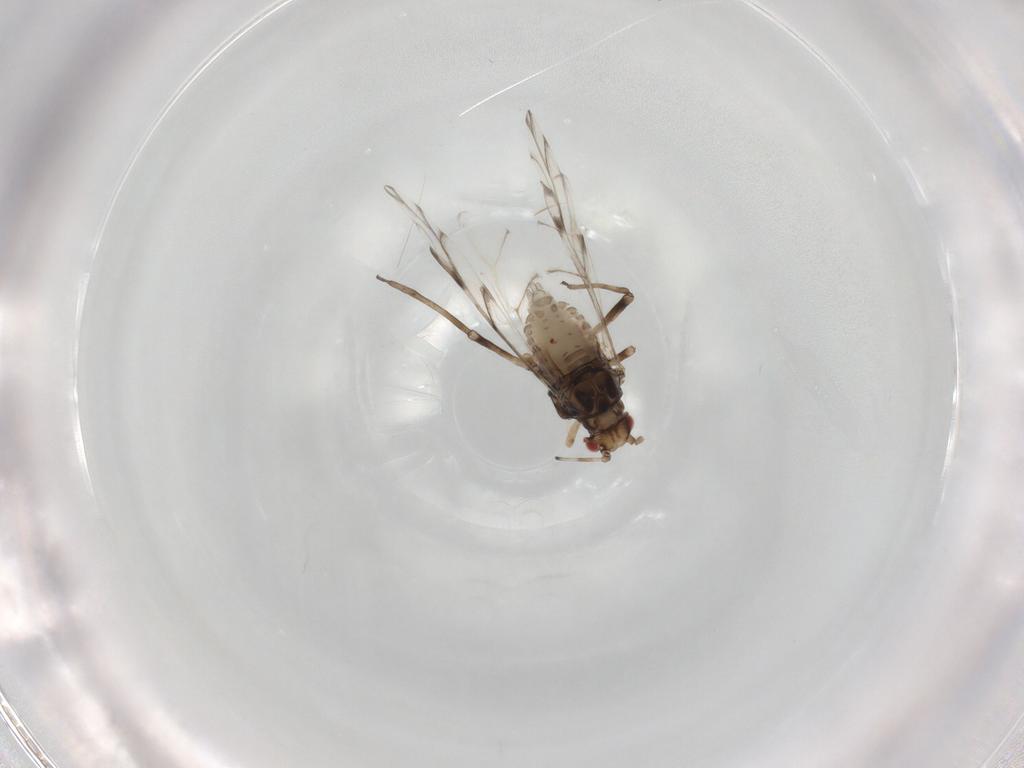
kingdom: Animalia
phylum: Arthropoda
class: Insecta
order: Hemiptera
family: Aphididae
